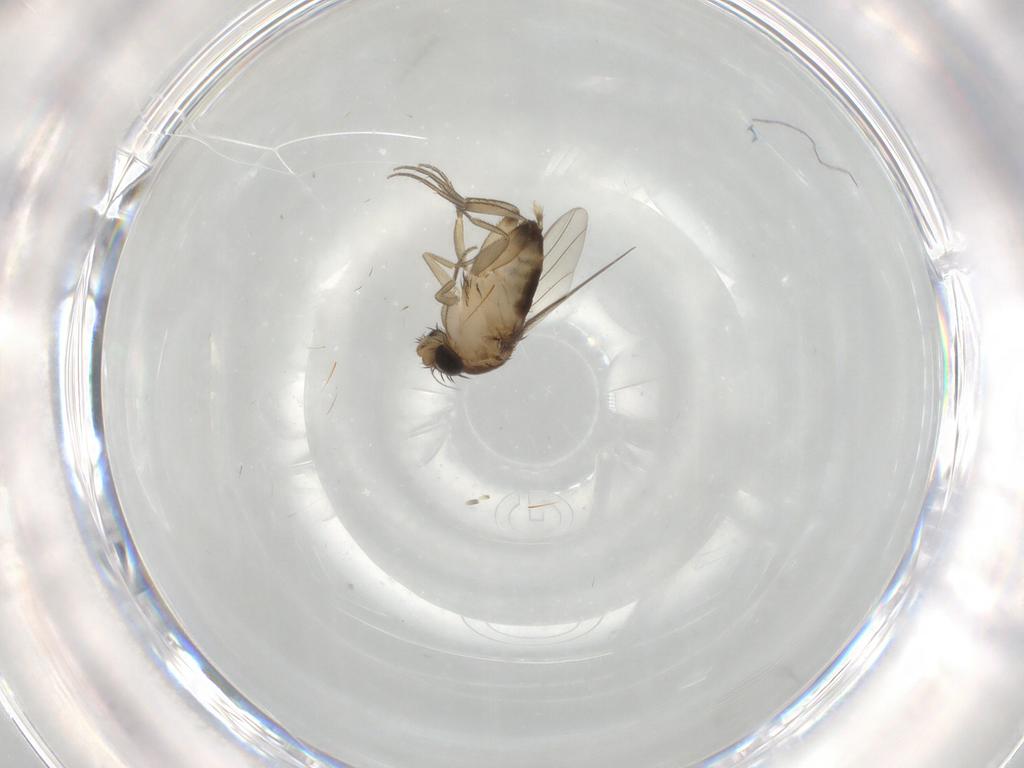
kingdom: Animalia
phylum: Arthropoda
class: Insecta
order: Diptera
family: Phoridae
